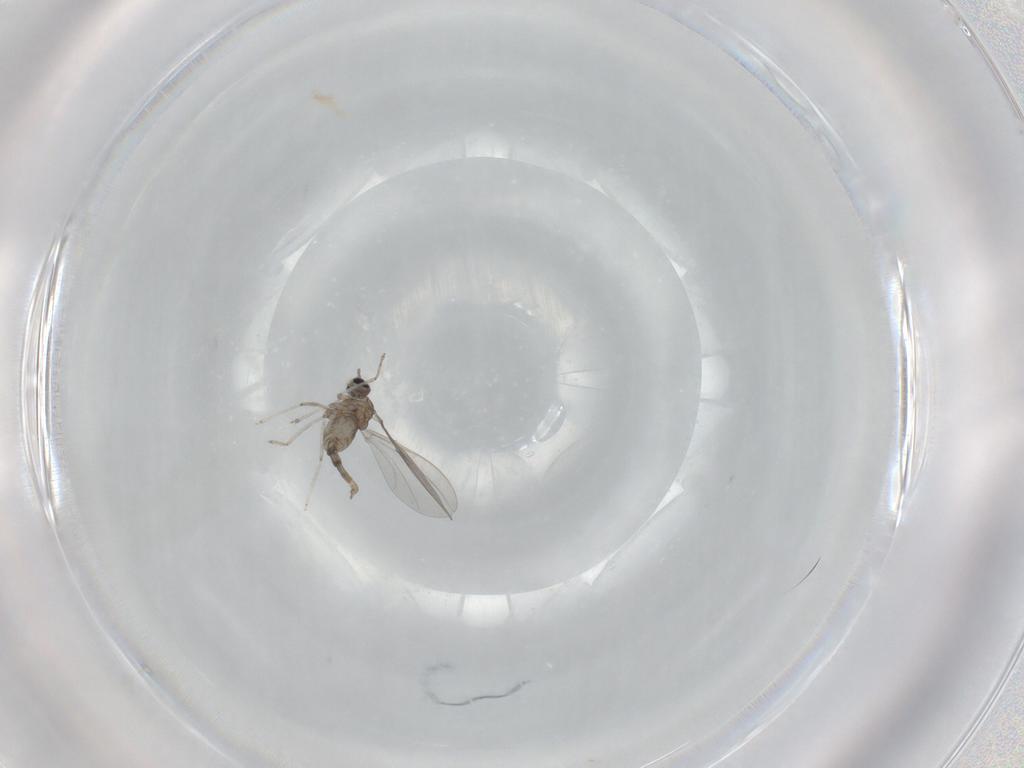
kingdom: Animalia
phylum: Arthropoda
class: Insecta
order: Diptera
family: Cecidomyiidae
